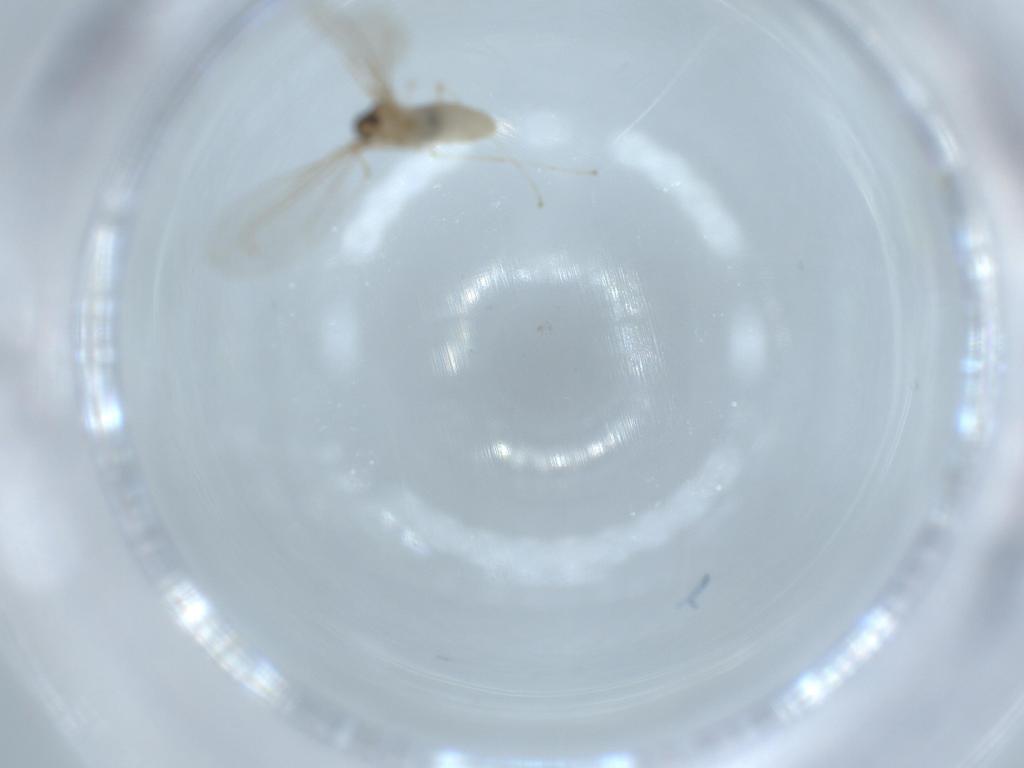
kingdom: Animalia
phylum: Arthropoda
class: Insecta
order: Diptera
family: Cecidomyiidae
